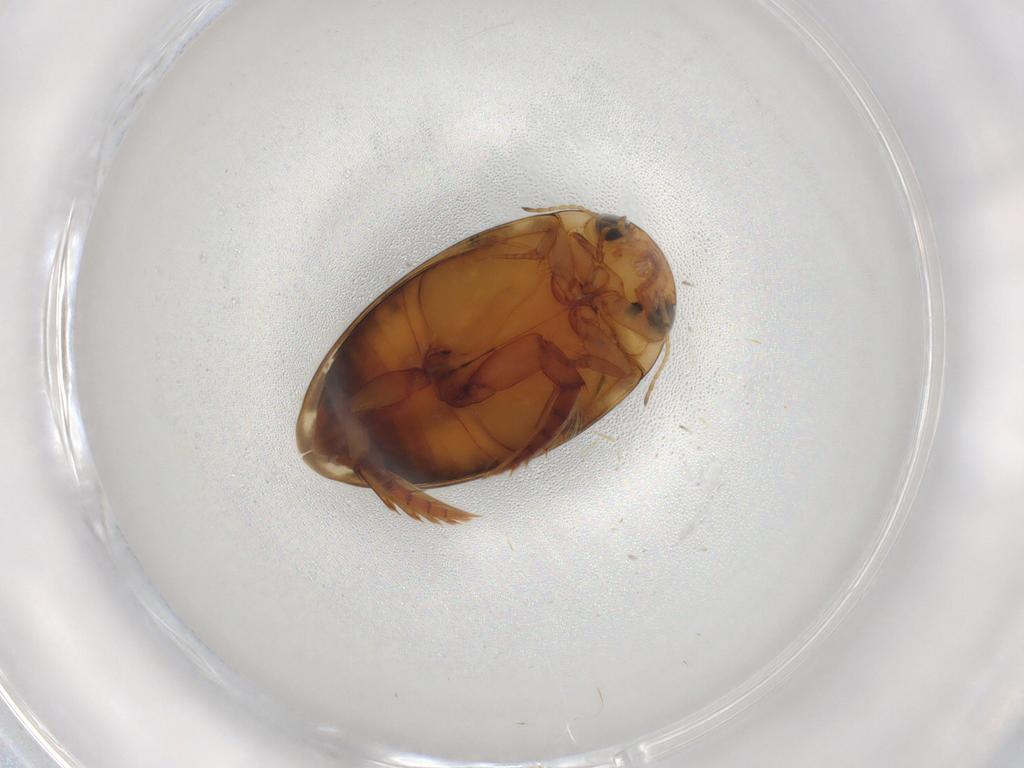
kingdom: Animalia
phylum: Arthropoda
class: Insecta
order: Coleoptera
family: Dytiscidae
